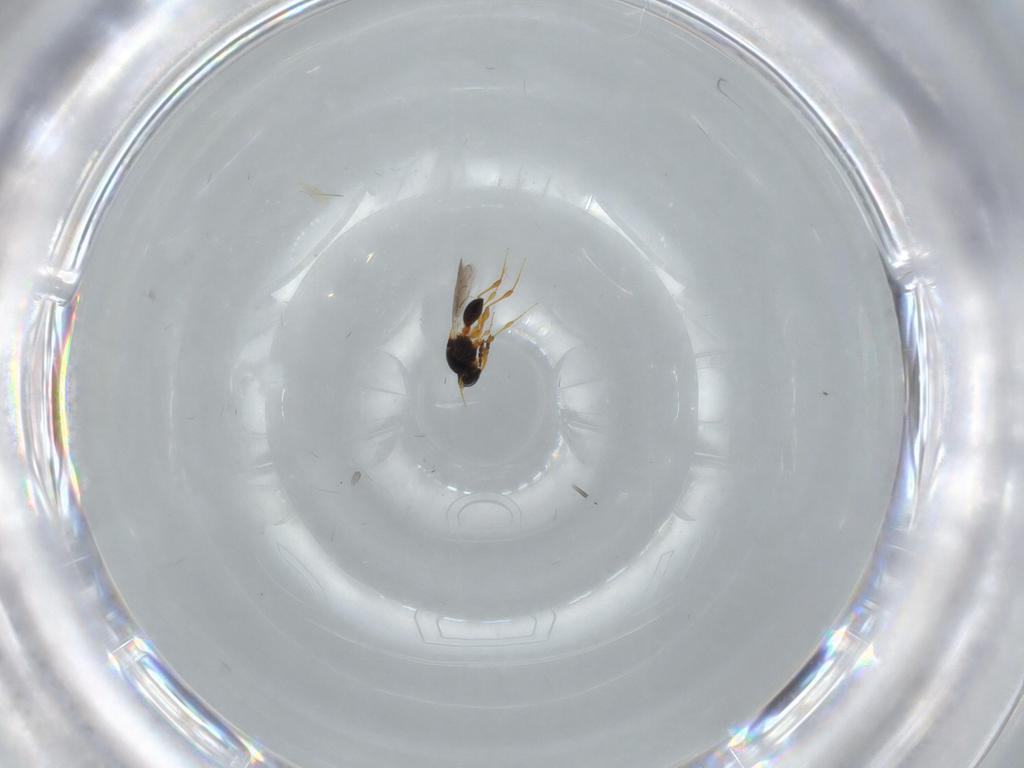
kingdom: Animalia
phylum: Arthropoda
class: Insecta
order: Hymenoptera
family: Platygastridae
